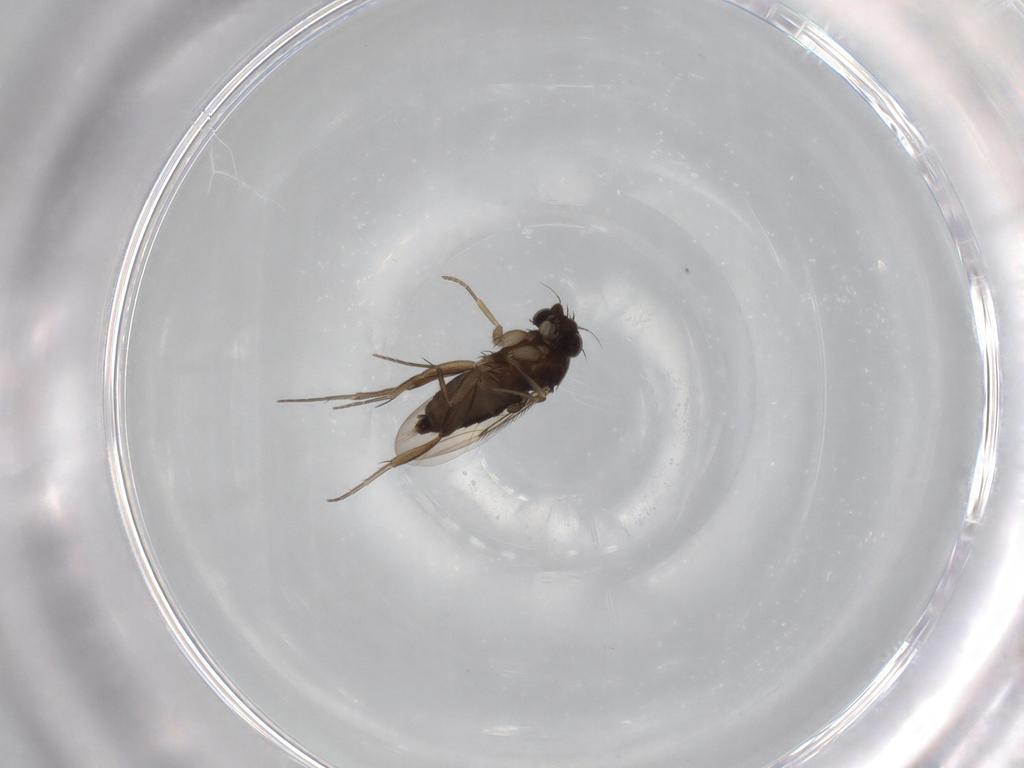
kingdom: Animalia
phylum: Arthropoda
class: Insecta
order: Diptera
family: Phoridae
